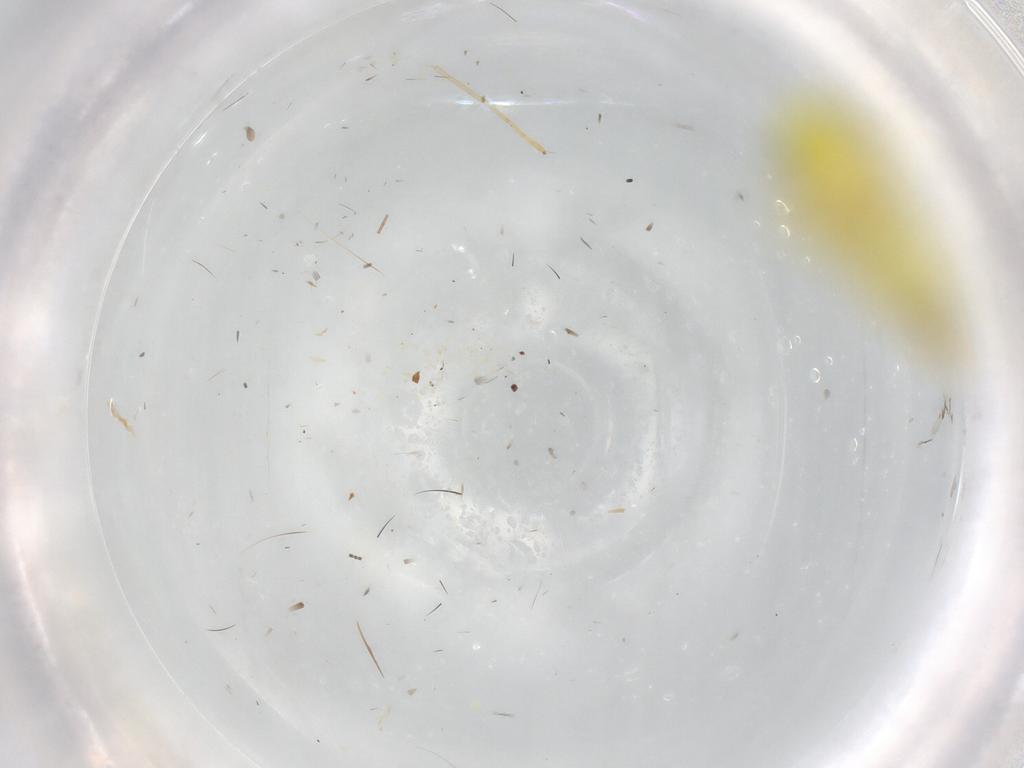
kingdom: Animalia
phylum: Arthropoda
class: Insecta
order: Hemiptera
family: Cicadellidae
